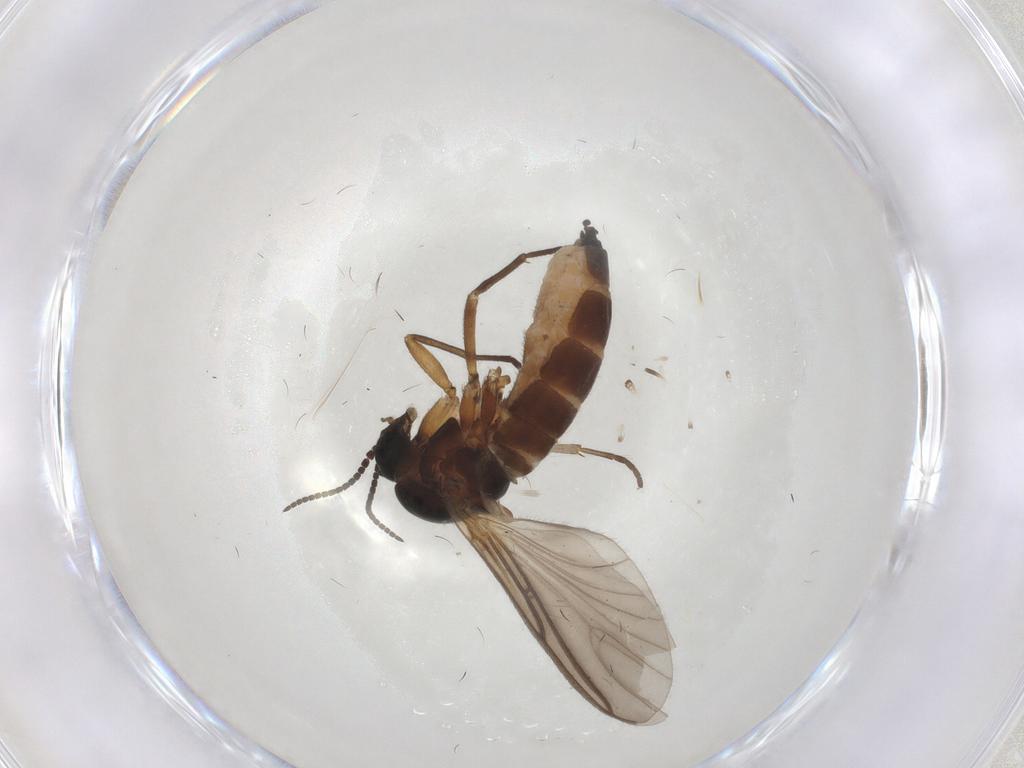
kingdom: Animalia
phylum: Arthropoda
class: Insecta
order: Diptera
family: Sciaridae
